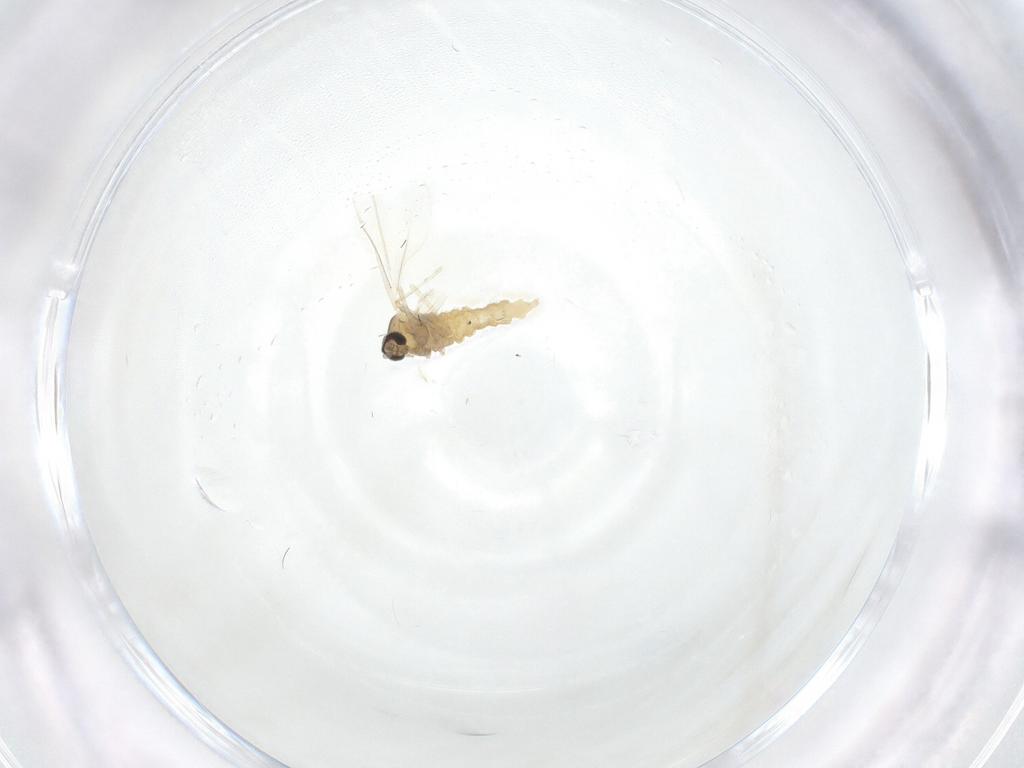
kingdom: Animalia
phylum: Arthropoda
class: Insecta
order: Diptera
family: Cecidomyiidae
